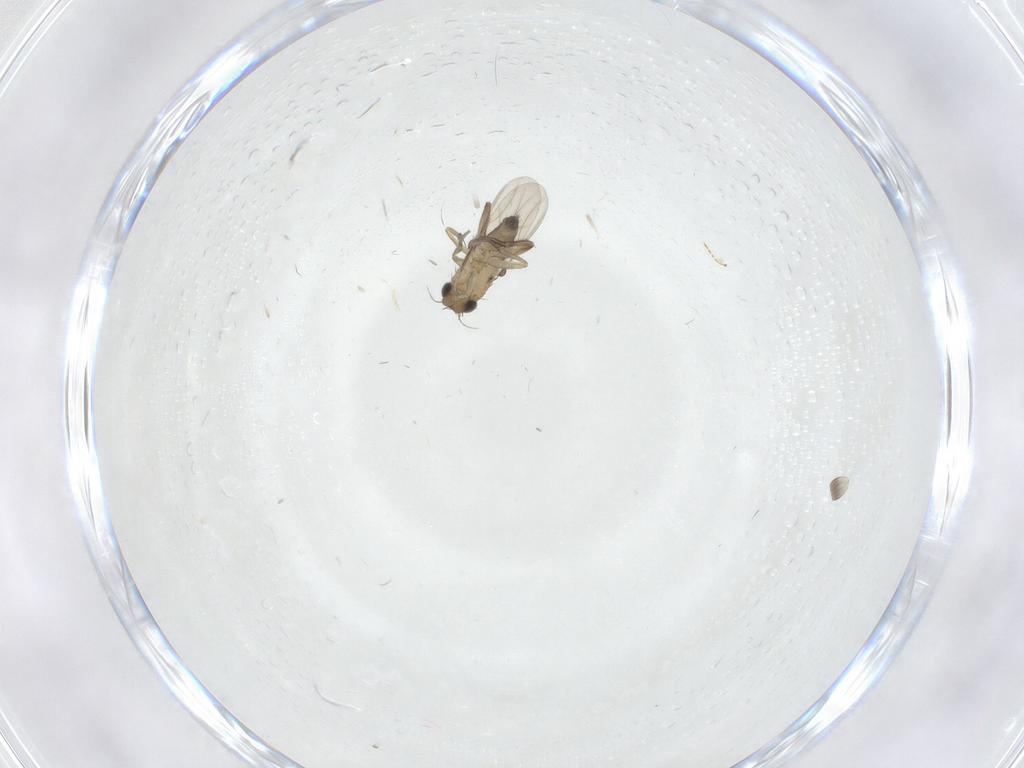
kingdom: Animalia
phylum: Arthropoda
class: Insecta
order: Diptera
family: Phoridae
